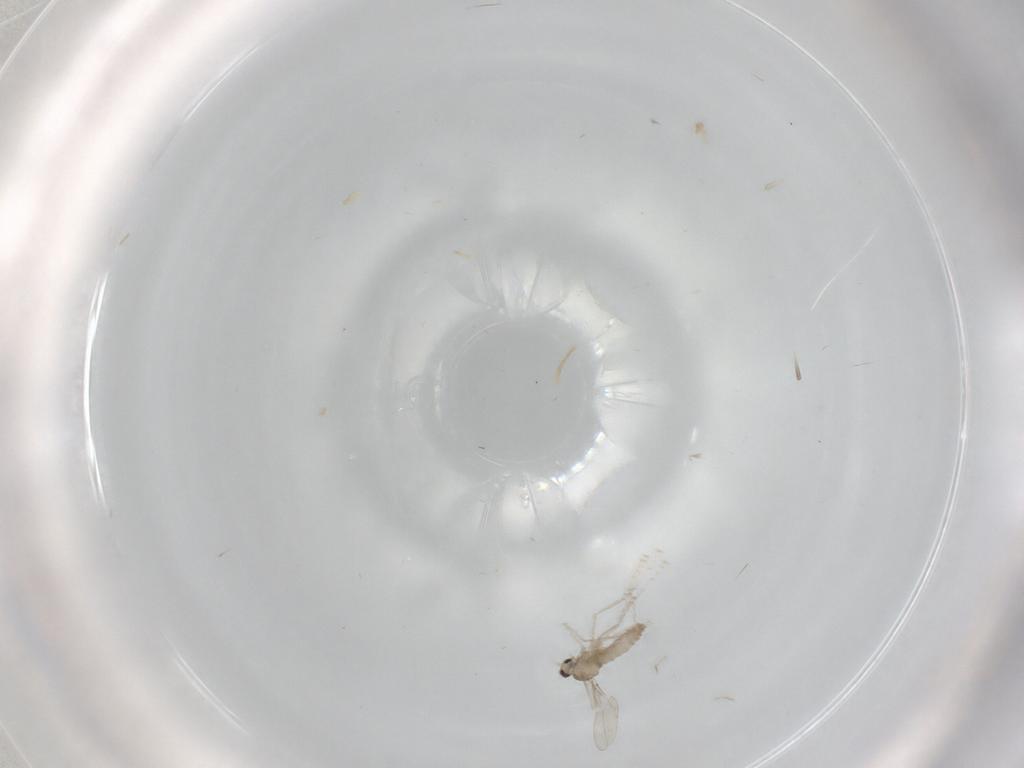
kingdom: Animalia
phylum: Arthropoda
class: Insecta
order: Diptera
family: Cecidomyiidae
